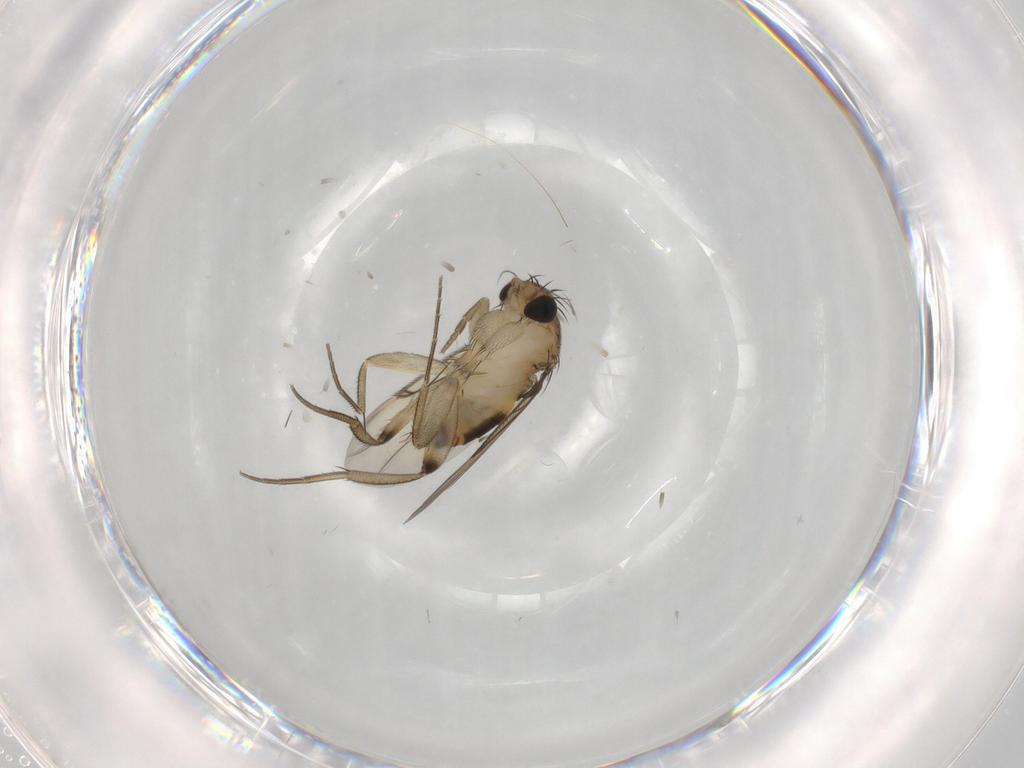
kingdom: Animalia
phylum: Arthropoda
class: Insecta
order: Diptera
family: Phoridae
